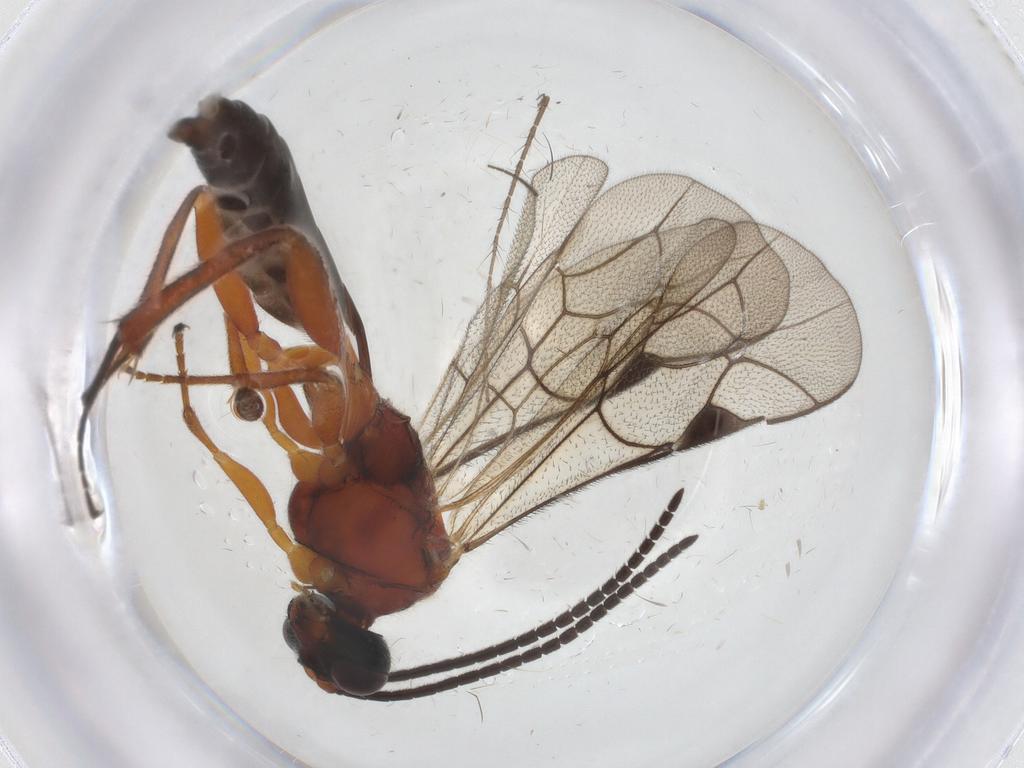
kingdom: Animalia
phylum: Arthropoda
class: Insecta
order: Hymenoptera
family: Ichneumonidae
